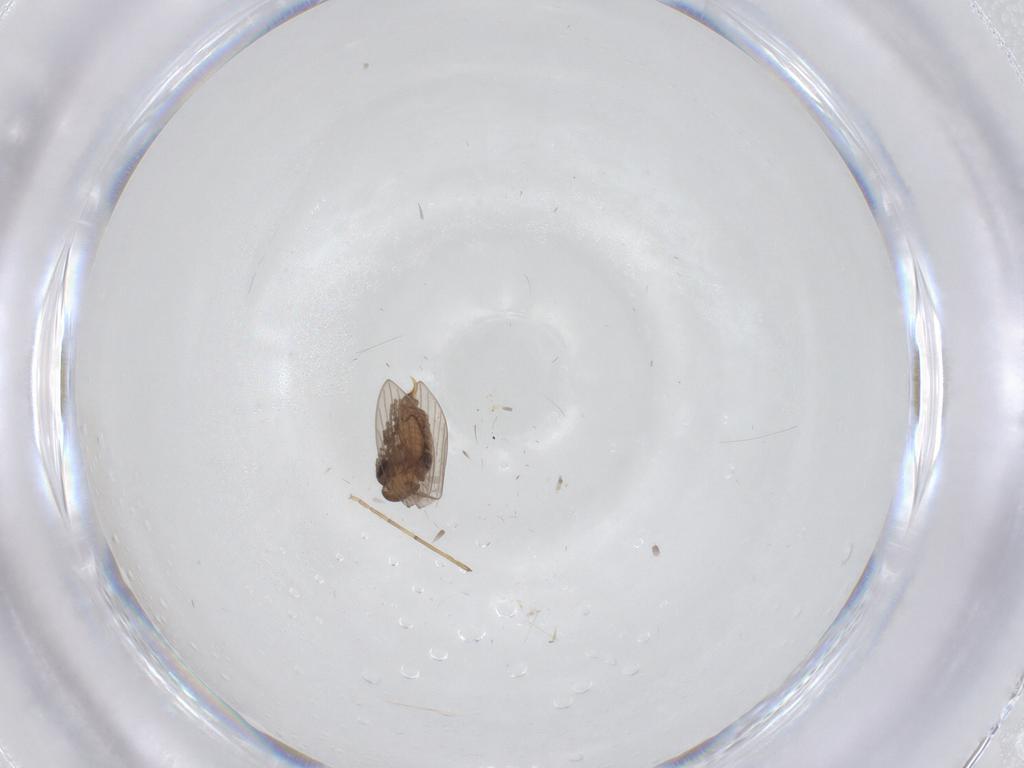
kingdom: Animalia
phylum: Arthropoda
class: Insecta
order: Diptera
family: Chironomidae
